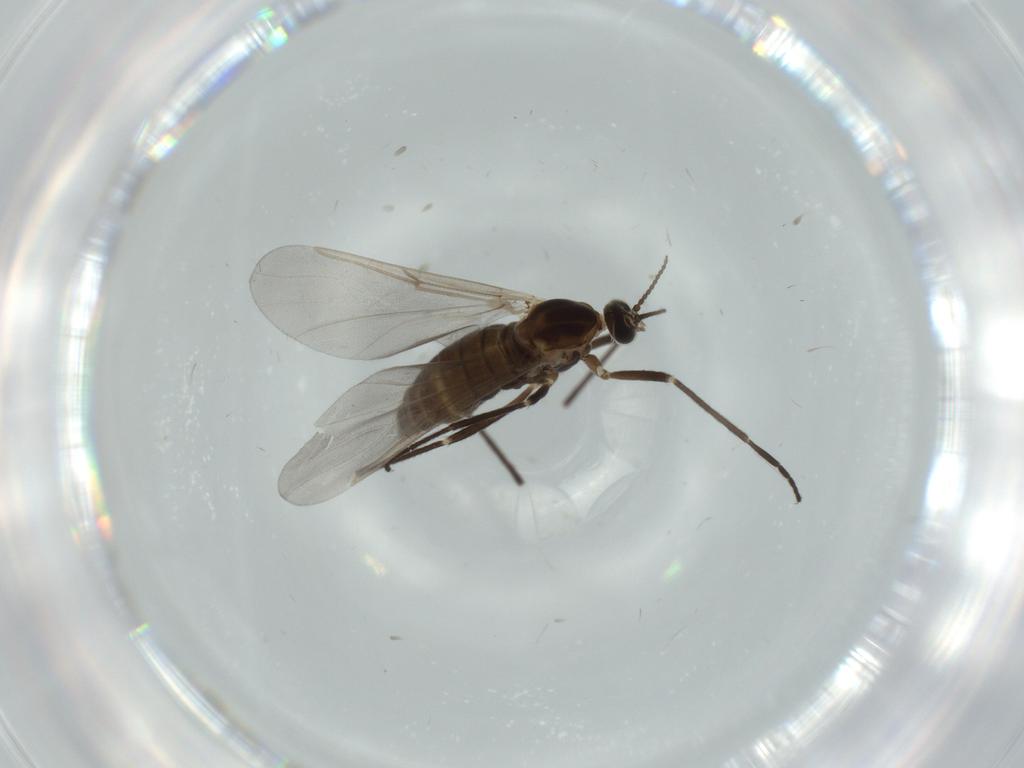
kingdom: Animalia
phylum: Arthropoda
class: Insecta
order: Diptera
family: Cecidomyiidae
